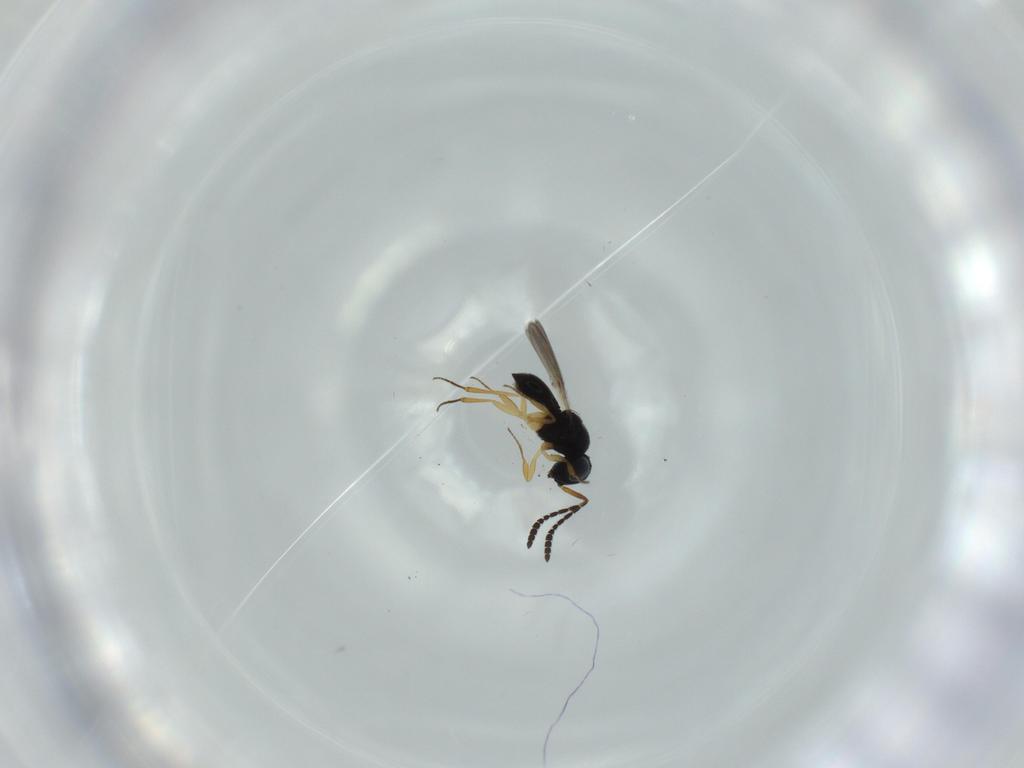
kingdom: Animalia
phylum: Arthropoda
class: Insecta
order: Hymenoptera
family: Scelionidae
